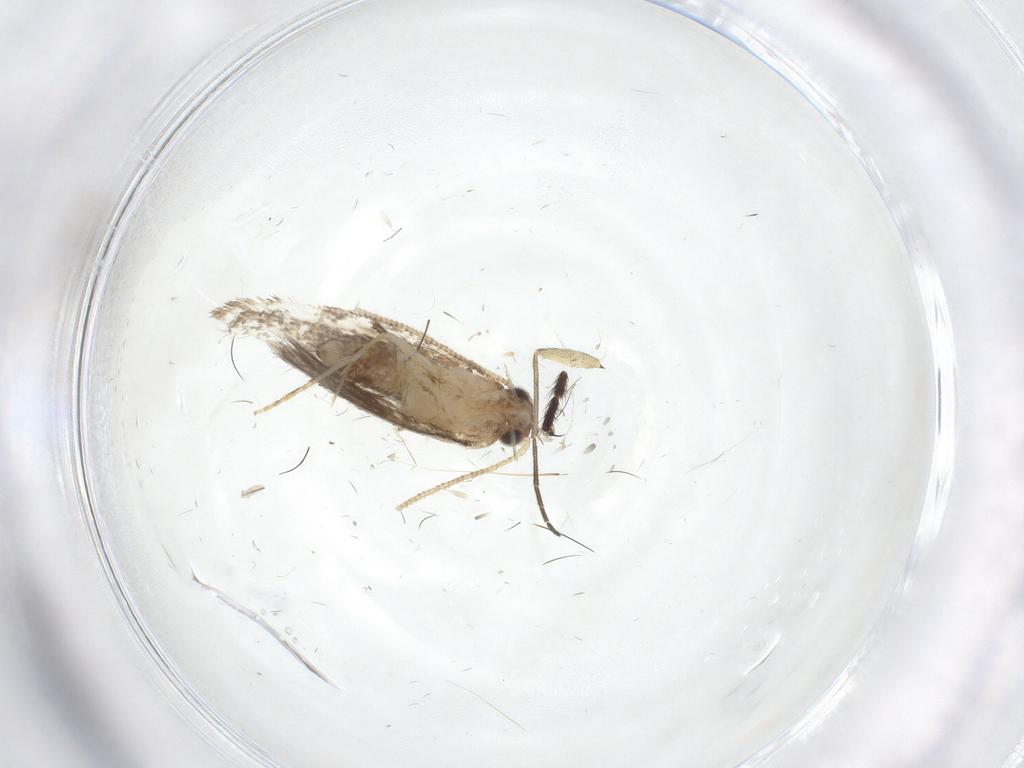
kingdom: Animalia
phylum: Arthropoda
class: Insecta
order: Lepidoptera
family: Tineidae
